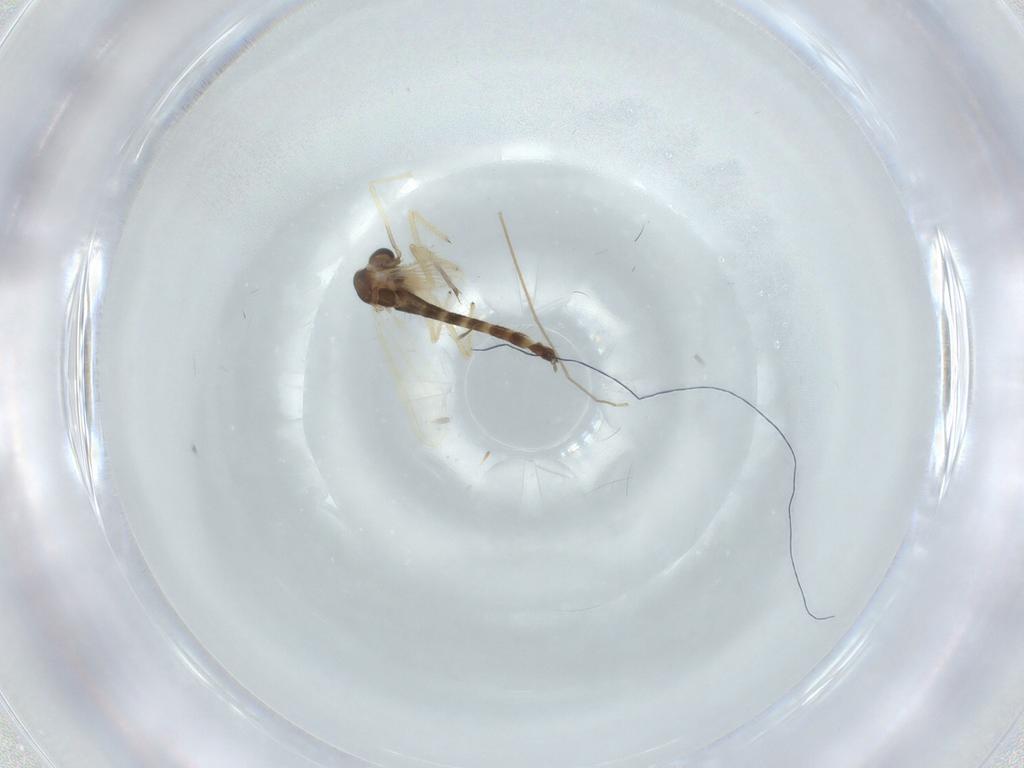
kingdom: Animalia
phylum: Arthropoda
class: Insecta
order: Diptera
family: Chironomidae
